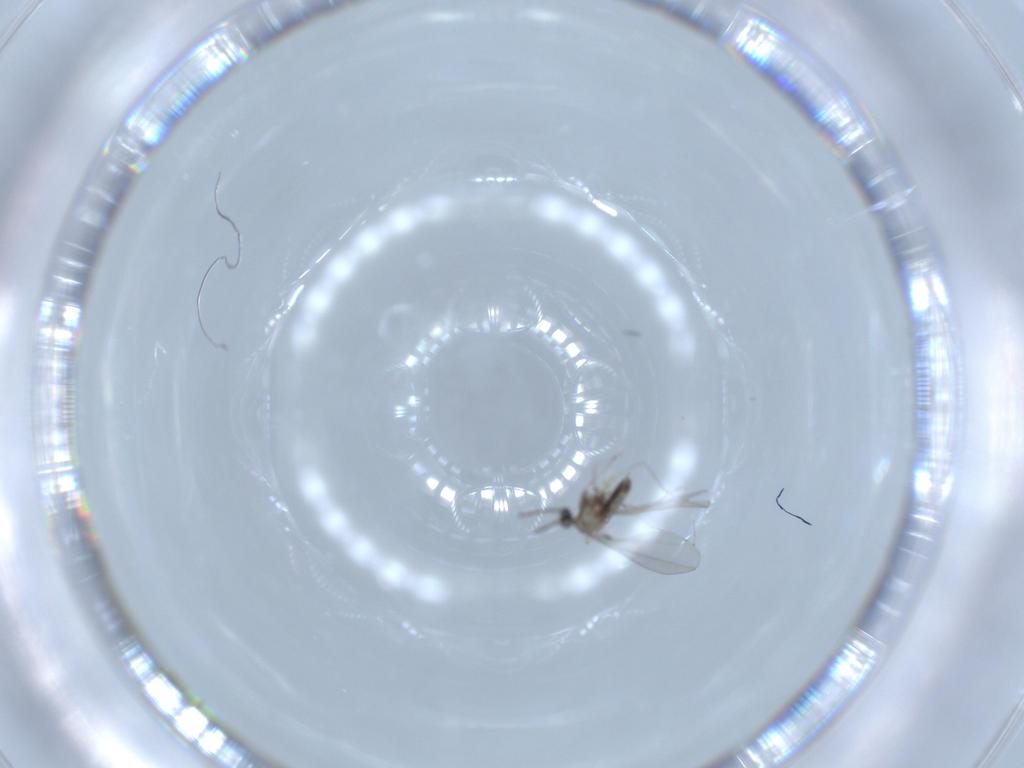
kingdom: Animalia
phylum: Arthropoda
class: Insecta
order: Diptera
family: Cecidomyiidae
